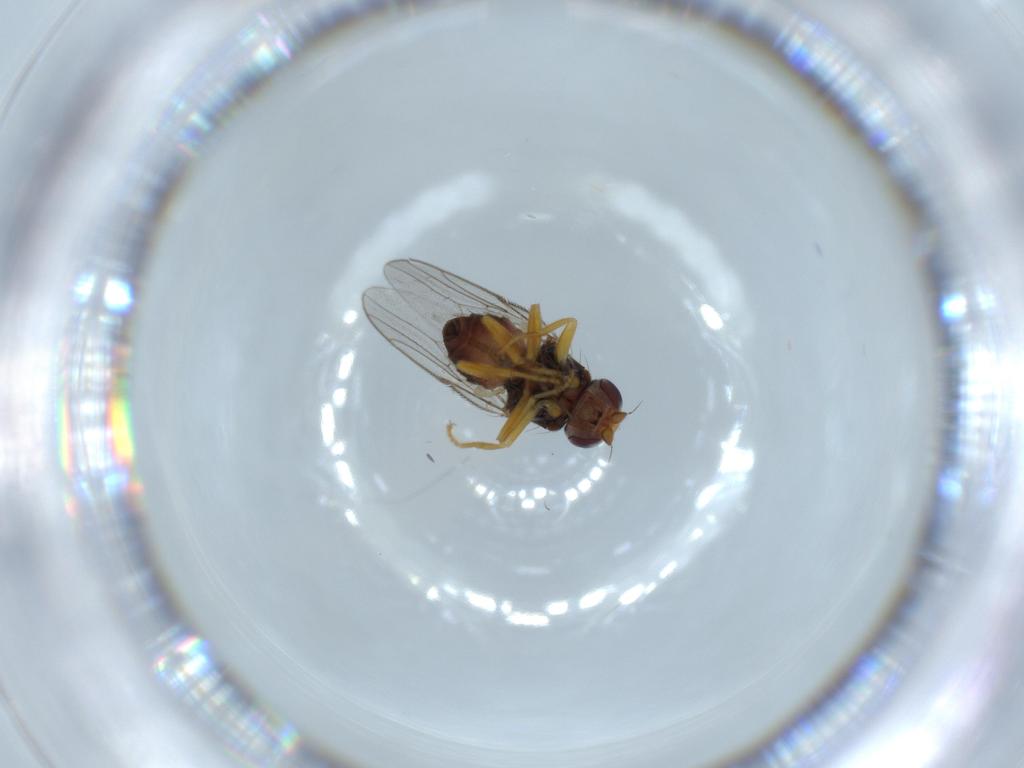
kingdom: Animalia
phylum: Arthropoda
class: Insecta
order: Diptera
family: Chloropidae
